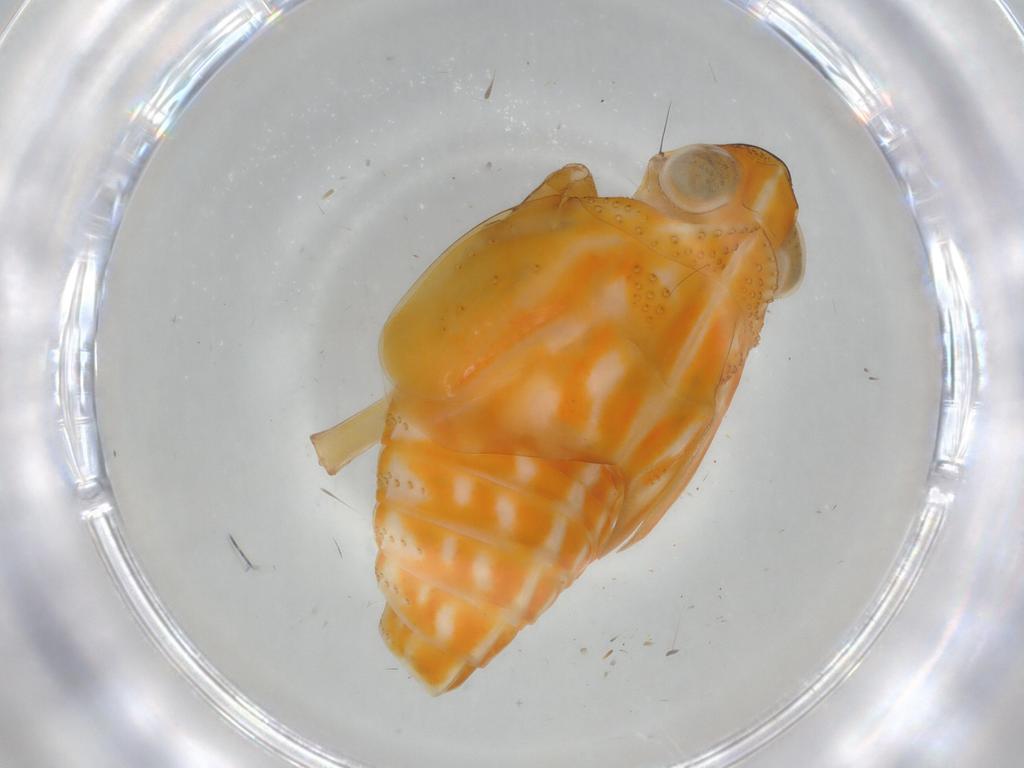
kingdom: Animalia
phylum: Arthropoda
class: Insecta
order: Hemiptera
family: Issidae
